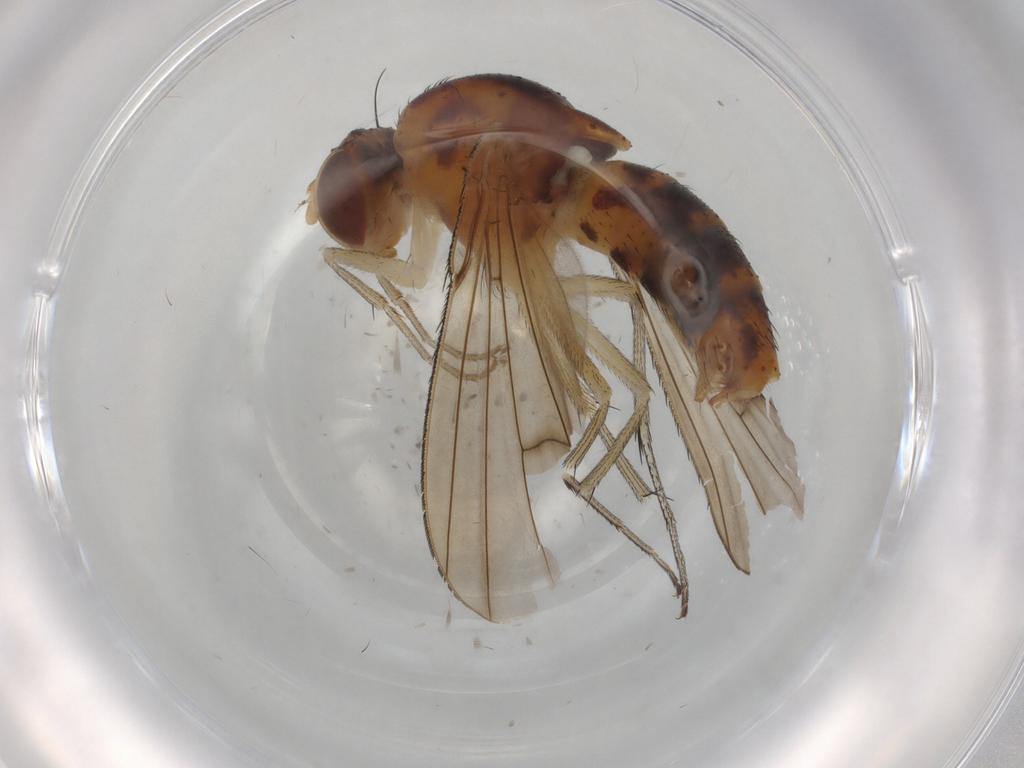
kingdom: Animalia
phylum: Arthropoda
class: Insecta
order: Diptera
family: Curtonotidae
